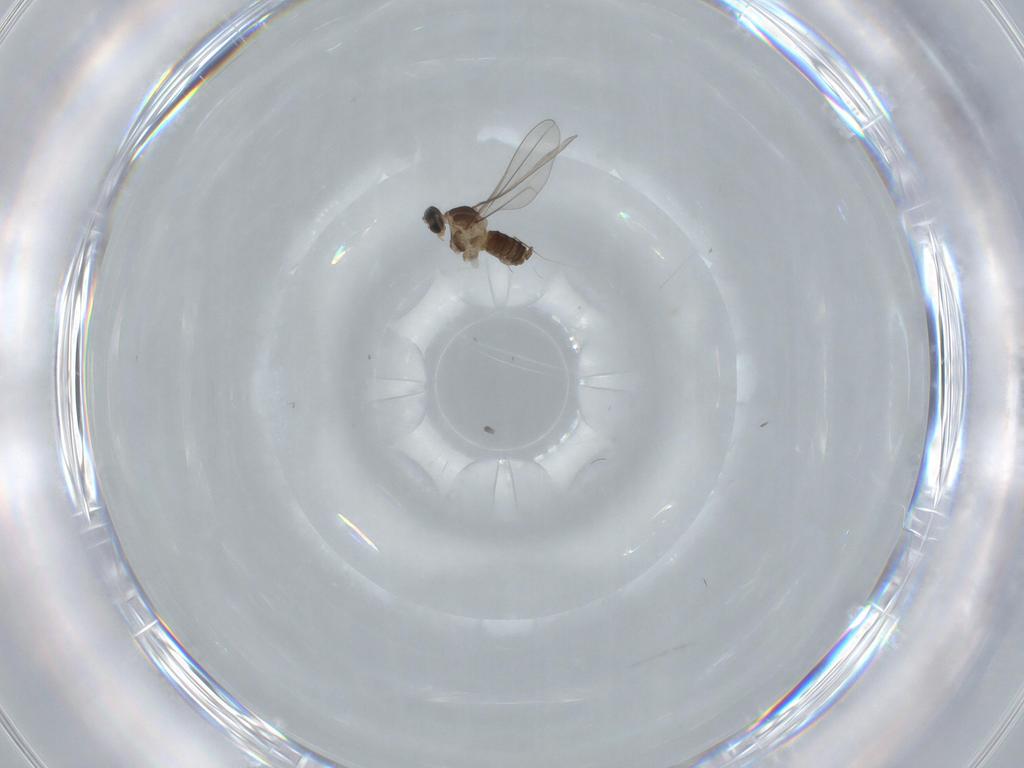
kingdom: Animalia
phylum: Arthropoda
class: Insecta
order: Diptera
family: Cecidomyiidae
